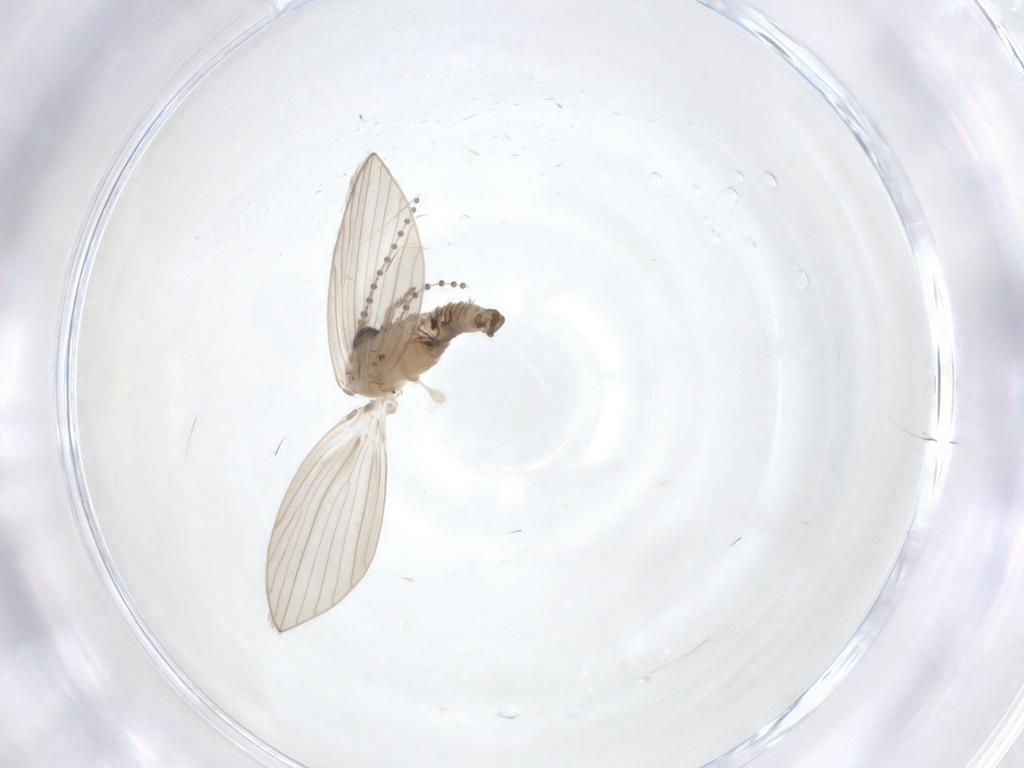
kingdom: Animalia
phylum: Arthropoda
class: Insecta
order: Diptera
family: Psychodidae
